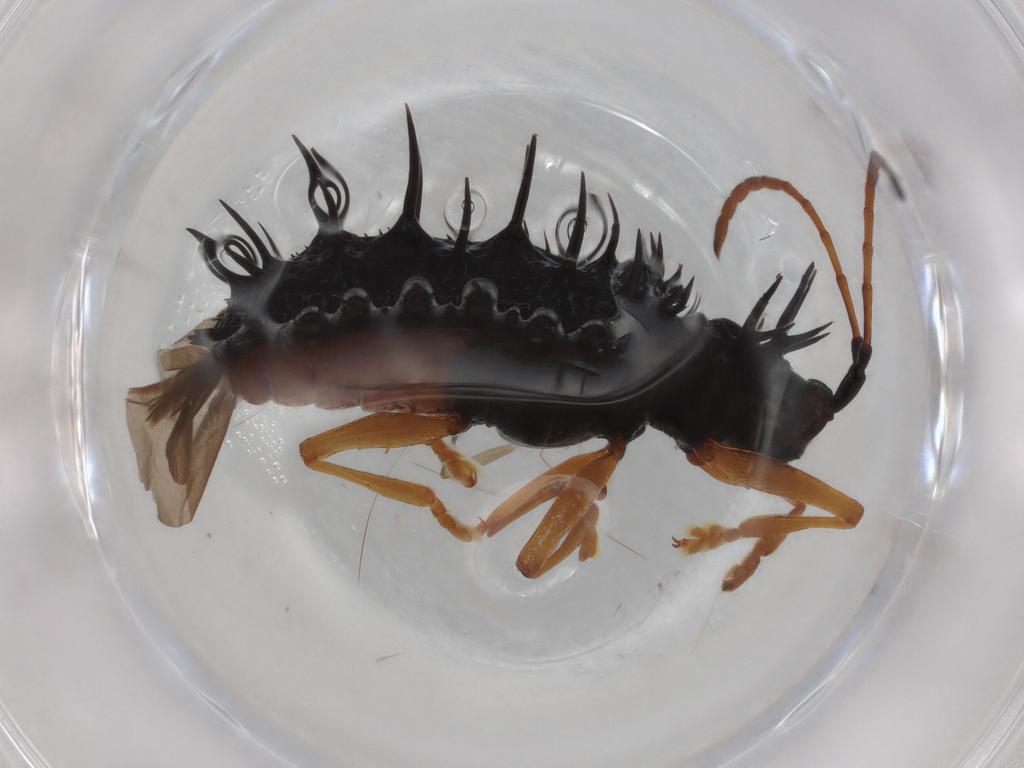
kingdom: Animalia
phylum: Arthropoda
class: Insecta
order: Coleoptera
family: Chrysomelidae
